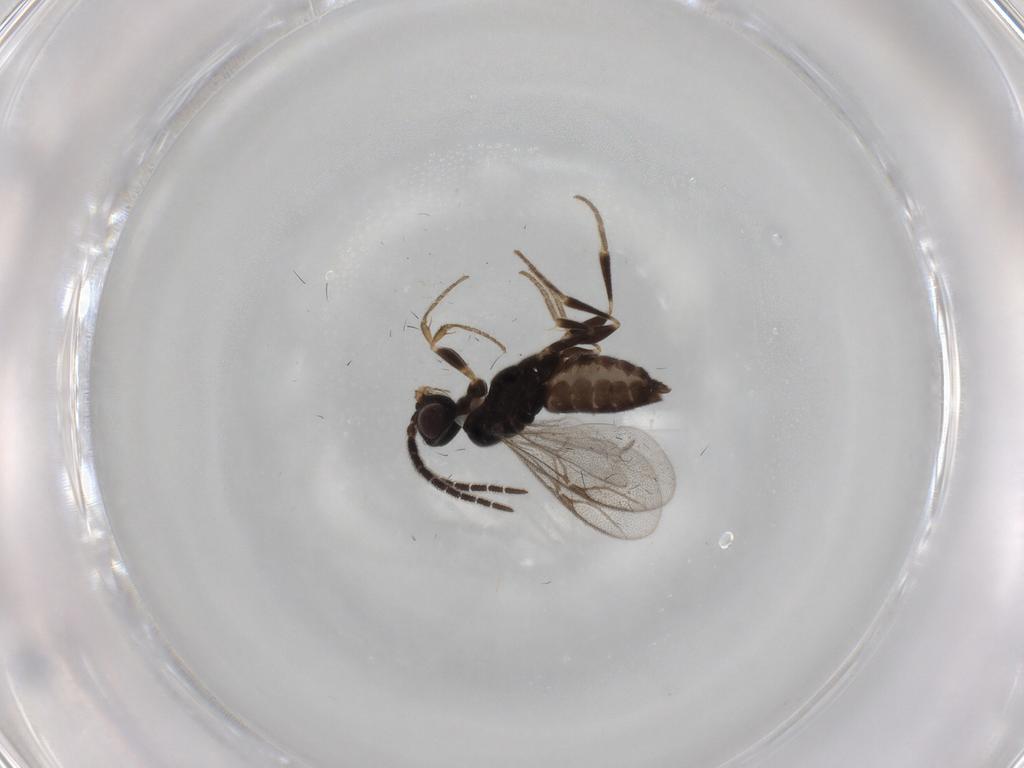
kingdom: Animalia
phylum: Arthropoda
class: Insecta
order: Hymenoptera
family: Dryinidae
